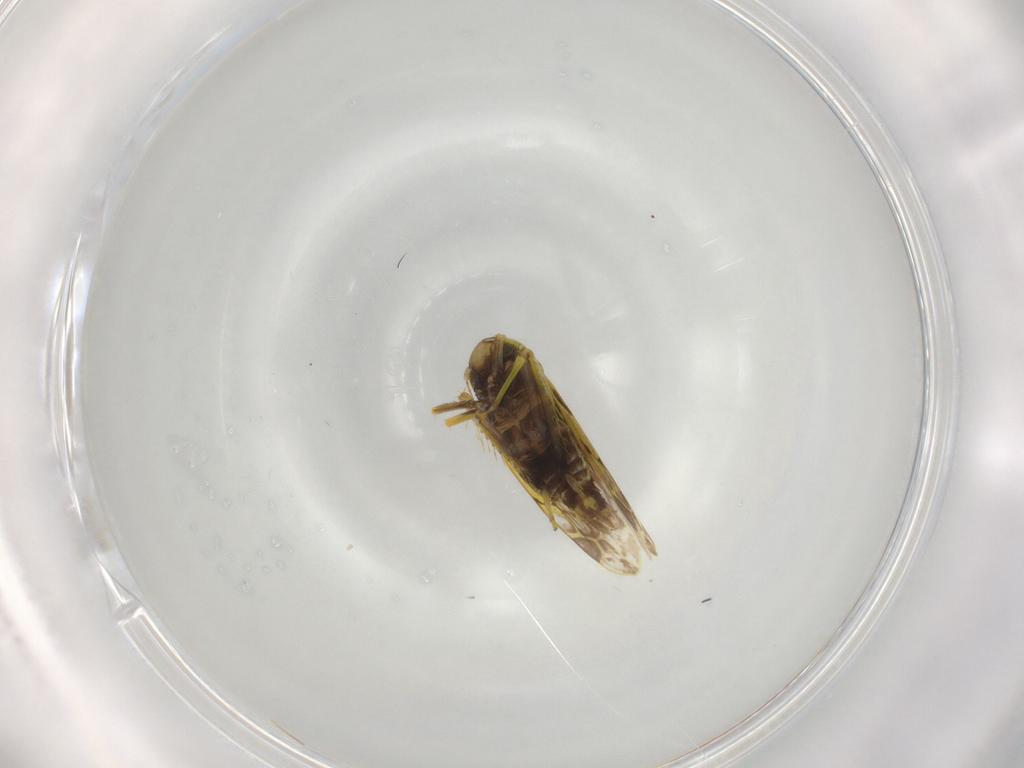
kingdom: Animalia
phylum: Arthropoda
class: Insecta
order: Hemiptera
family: Cicadellidae
